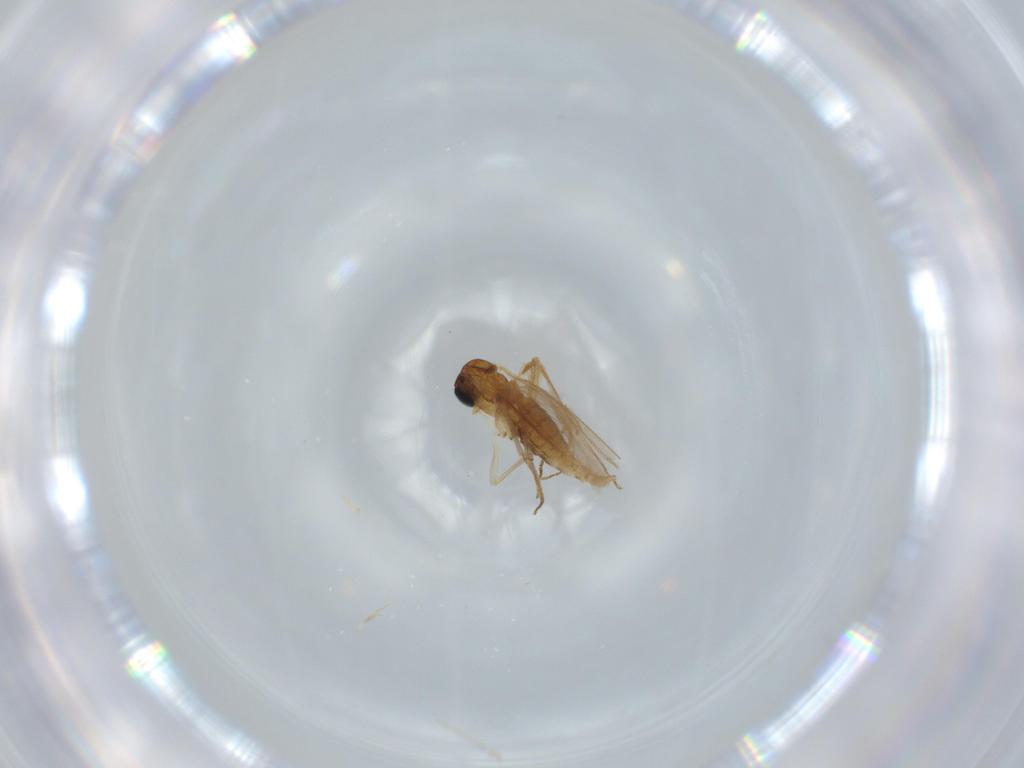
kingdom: Animalia
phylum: Arthropoda
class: Insecta
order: Diptera
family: Sciaridae
